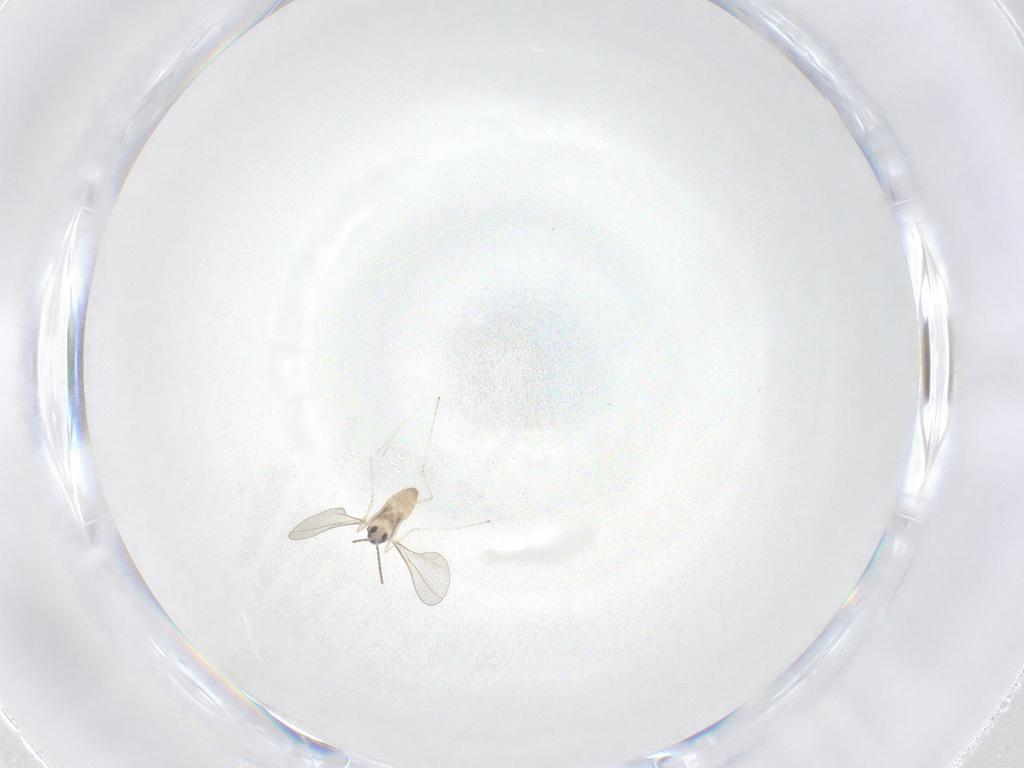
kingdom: Animalia
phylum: Arthropoda
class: Insecta
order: Diptera
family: Cecidomyiidae
